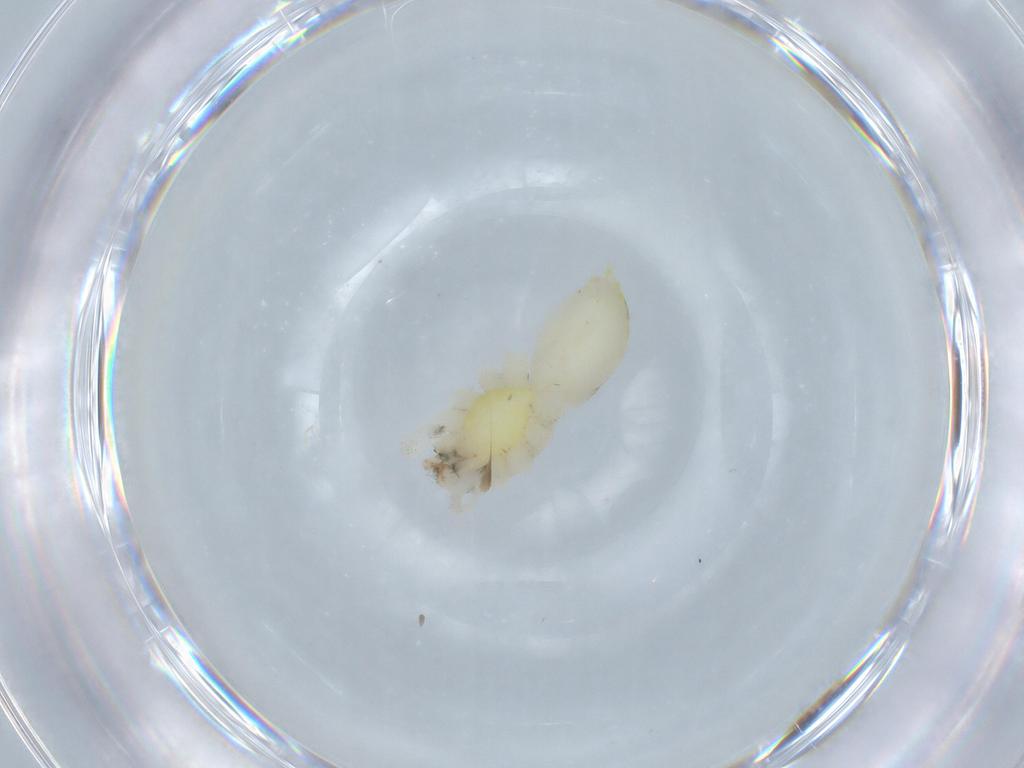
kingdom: Animalia
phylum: Arthropoda
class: Arachnida
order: Araneae
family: Anyphaenidae
